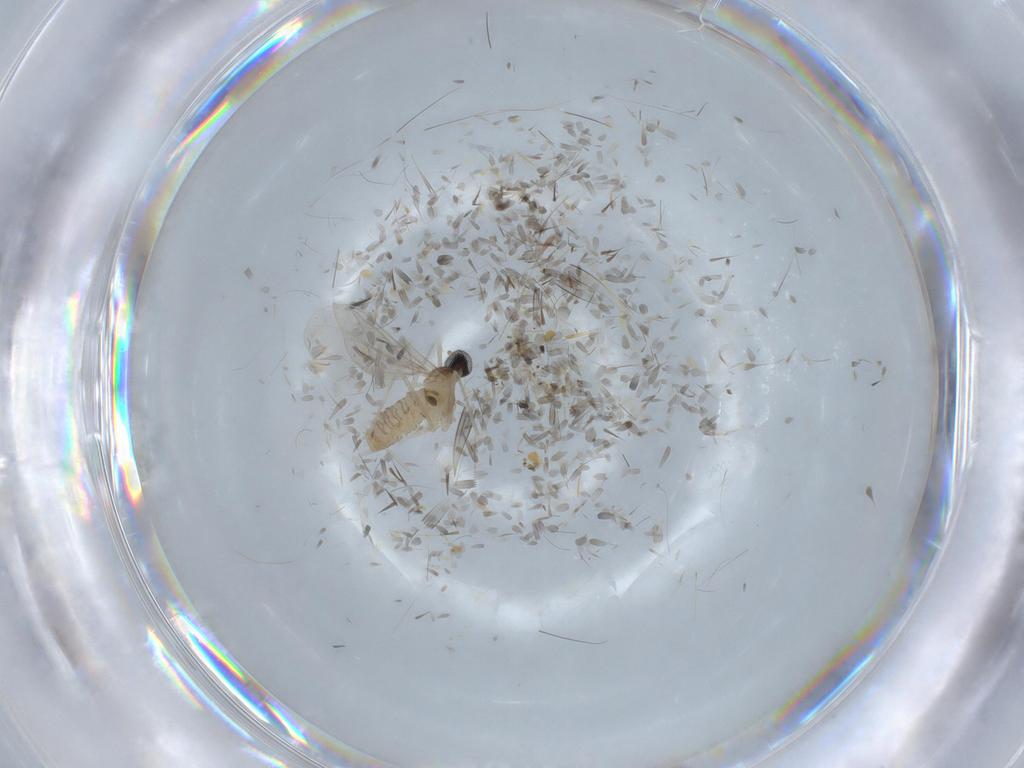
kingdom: Animalia
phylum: Arthropoda
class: Insecta
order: Diptera
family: Cecidomyiidae
